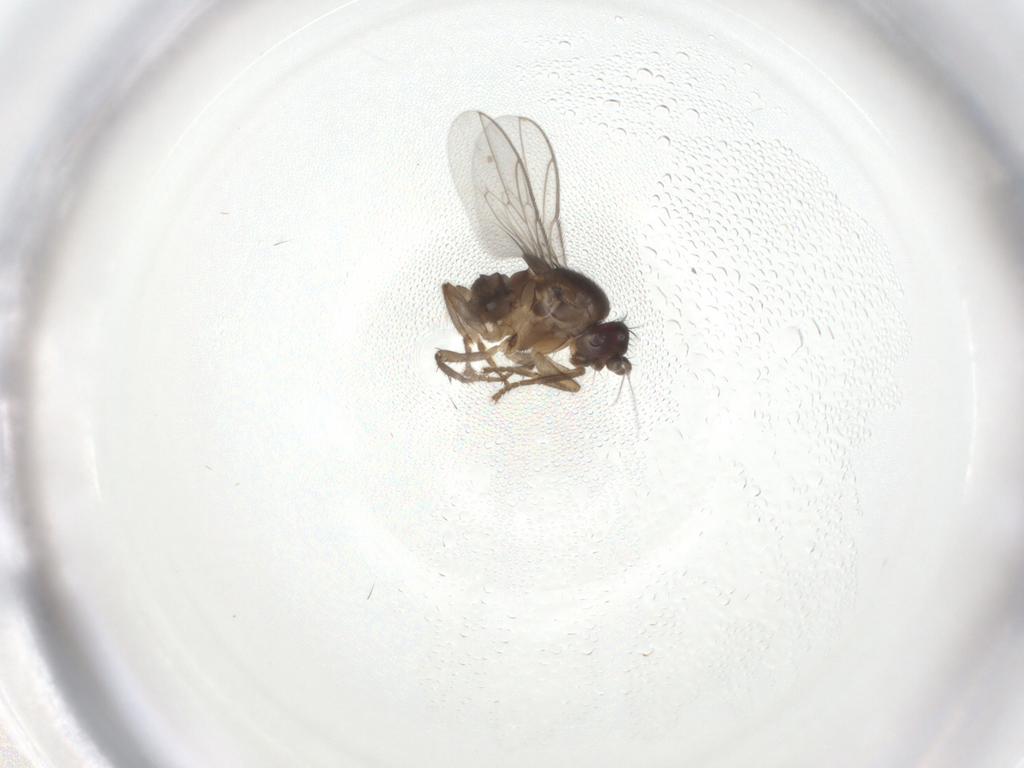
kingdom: Animalia
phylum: Arthropoda
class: Insecta
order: Diptera
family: Sphaeroceridae
